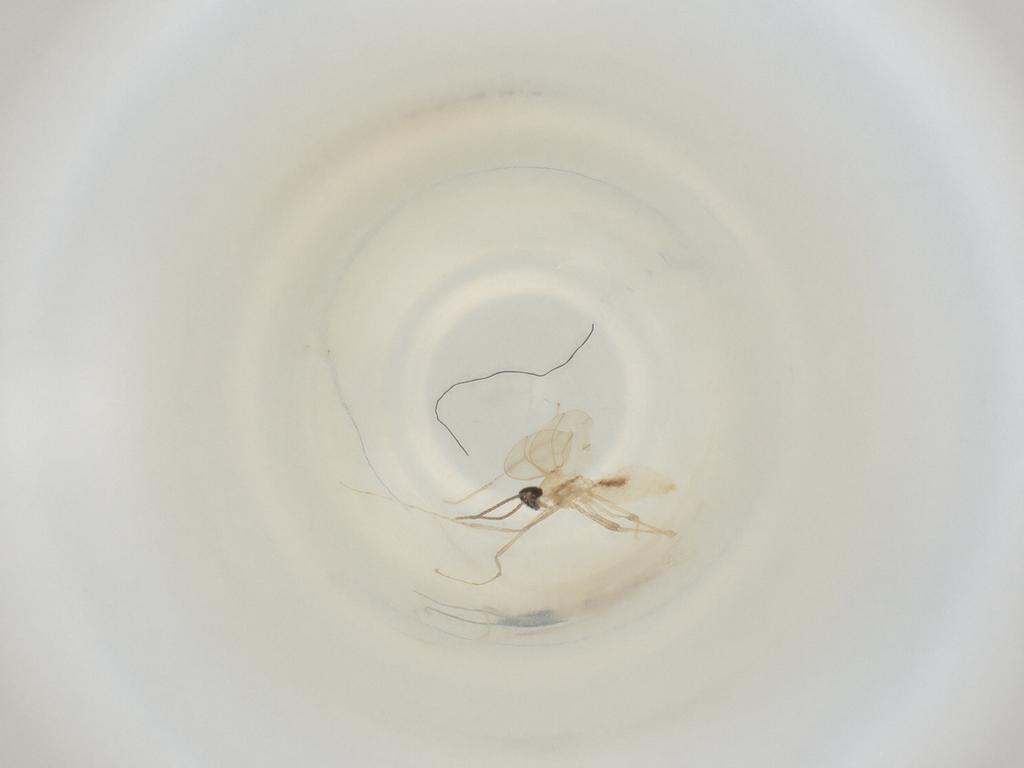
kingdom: Animalia
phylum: Arthropoda
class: Insecta
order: Diptera
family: Cecidomyiidae
